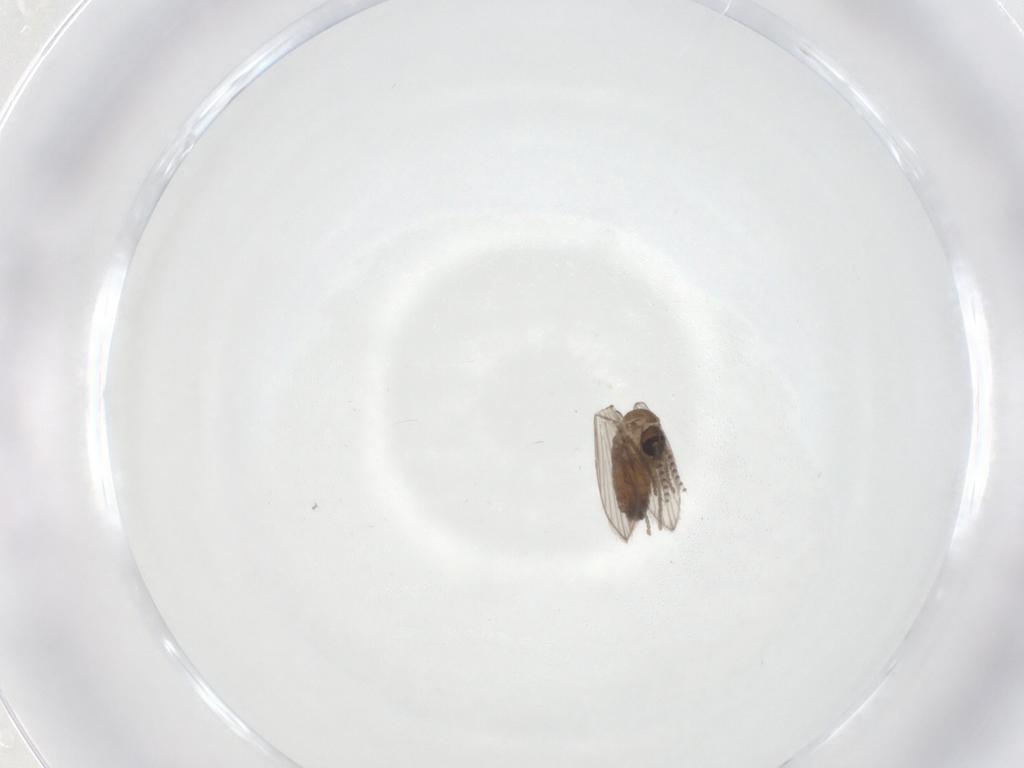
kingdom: Animalia
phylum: Arthropoda
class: Insecta
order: Diptera
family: Psychodidae
